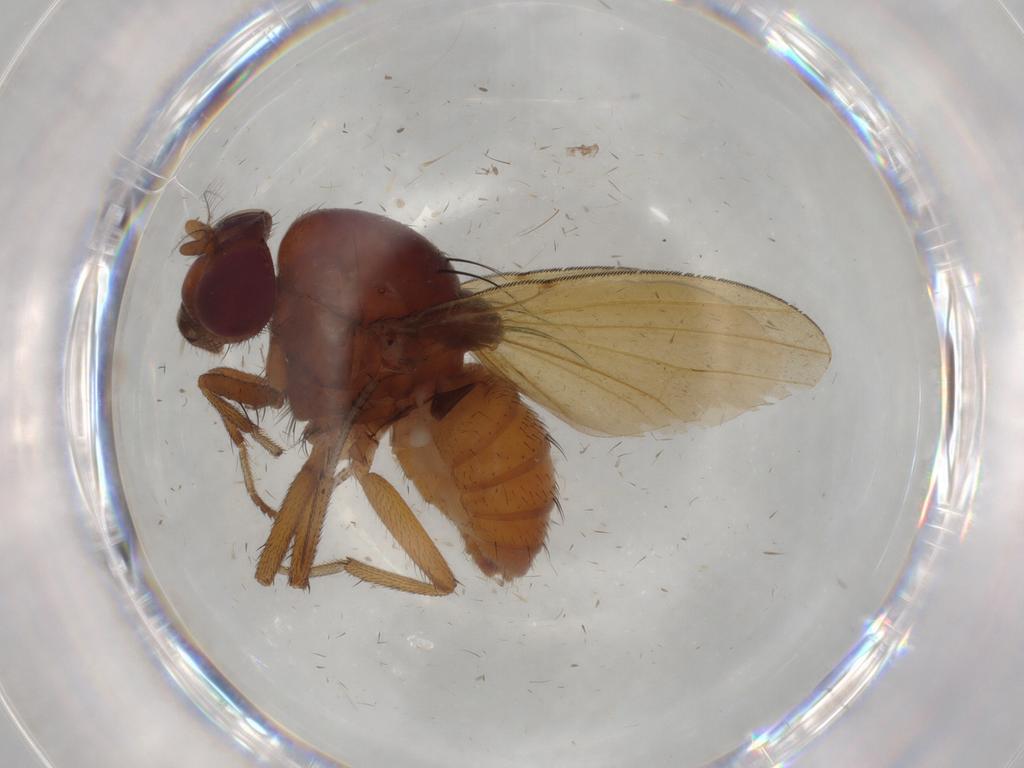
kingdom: Animalia
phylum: Arthropoda
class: Insecta
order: Diptera
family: Lauxaniidae
